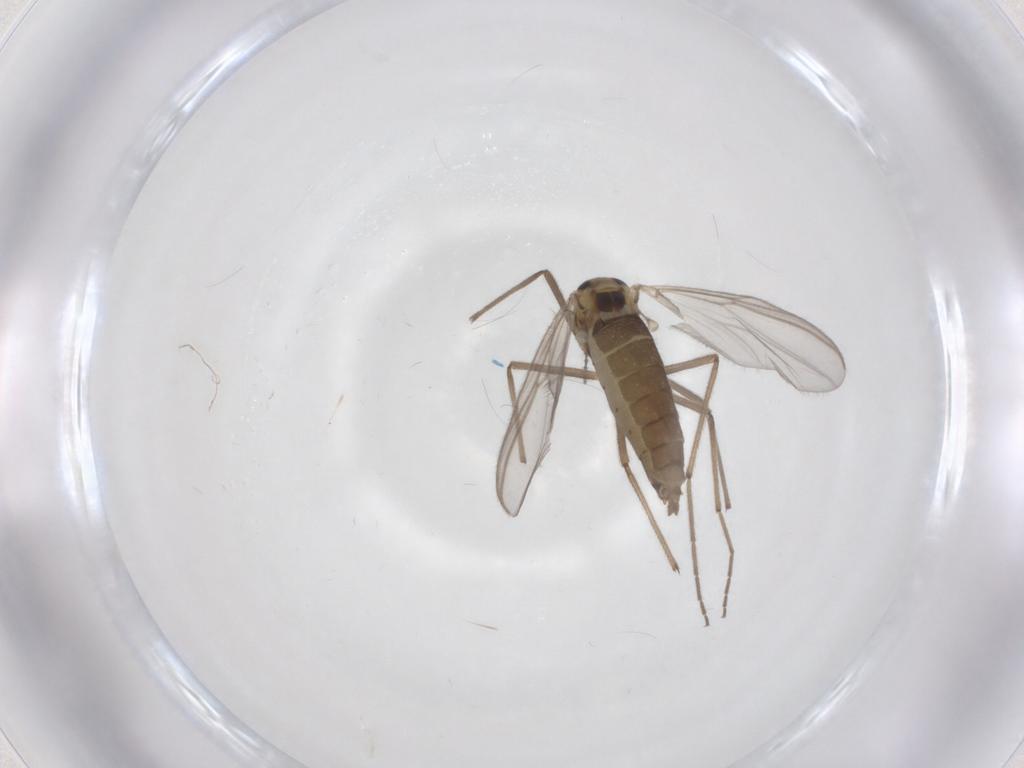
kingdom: Animalia
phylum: Arthropoda
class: Insecta
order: Diptera
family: Chironomidae
